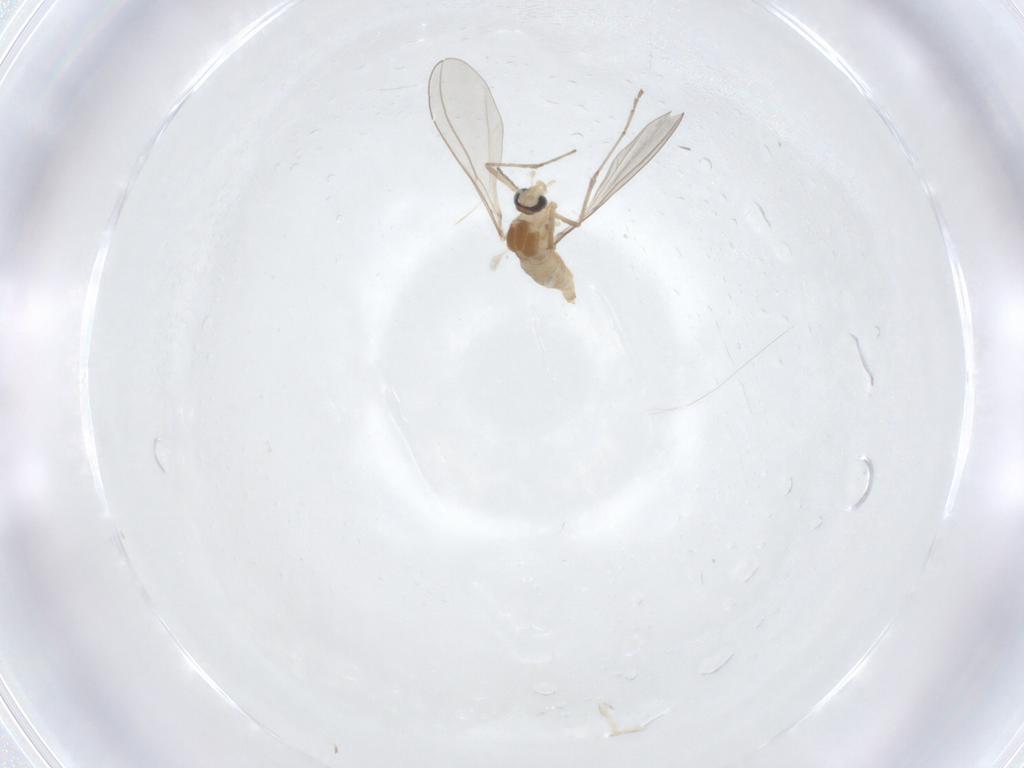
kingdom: Animalia
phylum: Arthropoda
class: Insecta
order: Diptera
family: Cecidomyiidae
